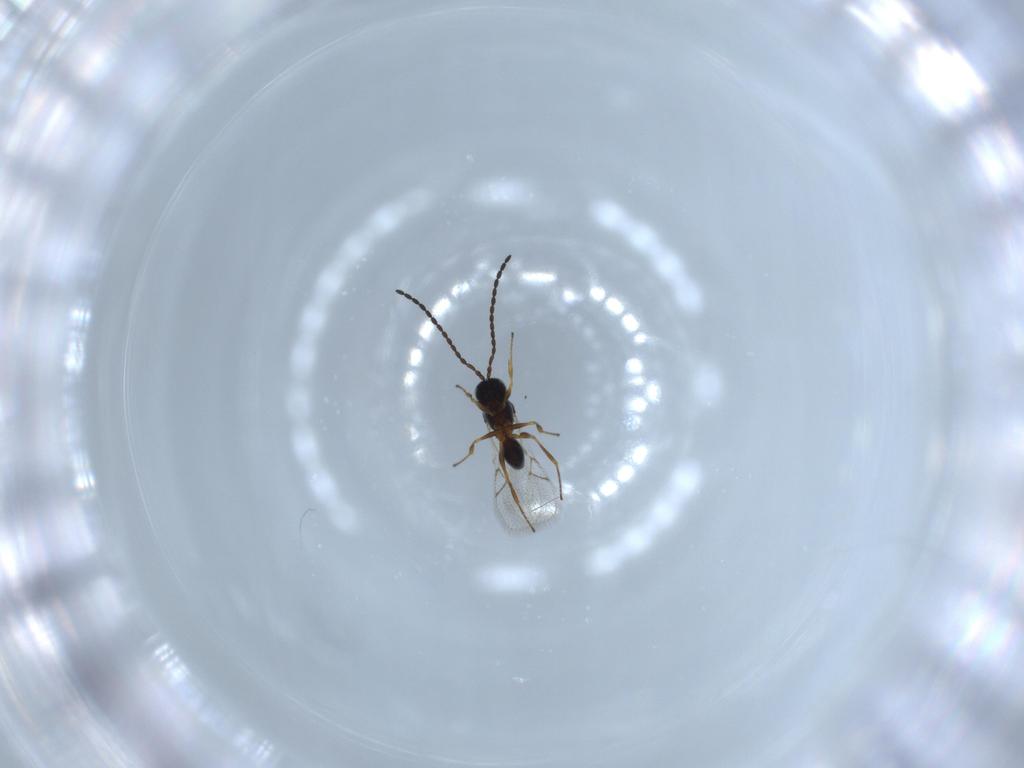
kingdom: Animalia
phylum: Arthropoda
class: Insecta
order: Hymenoptera
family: Figitidae
